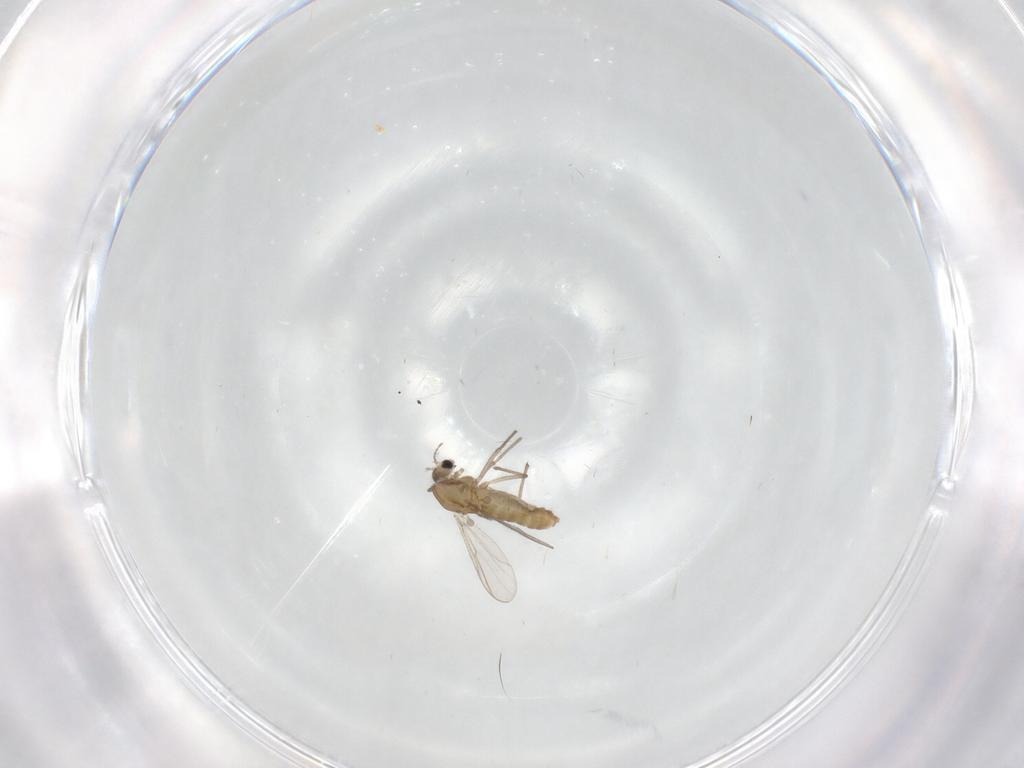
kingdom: Animalia
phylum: Arthropoda
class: Insecta
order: Diptera
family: Chironomidae
